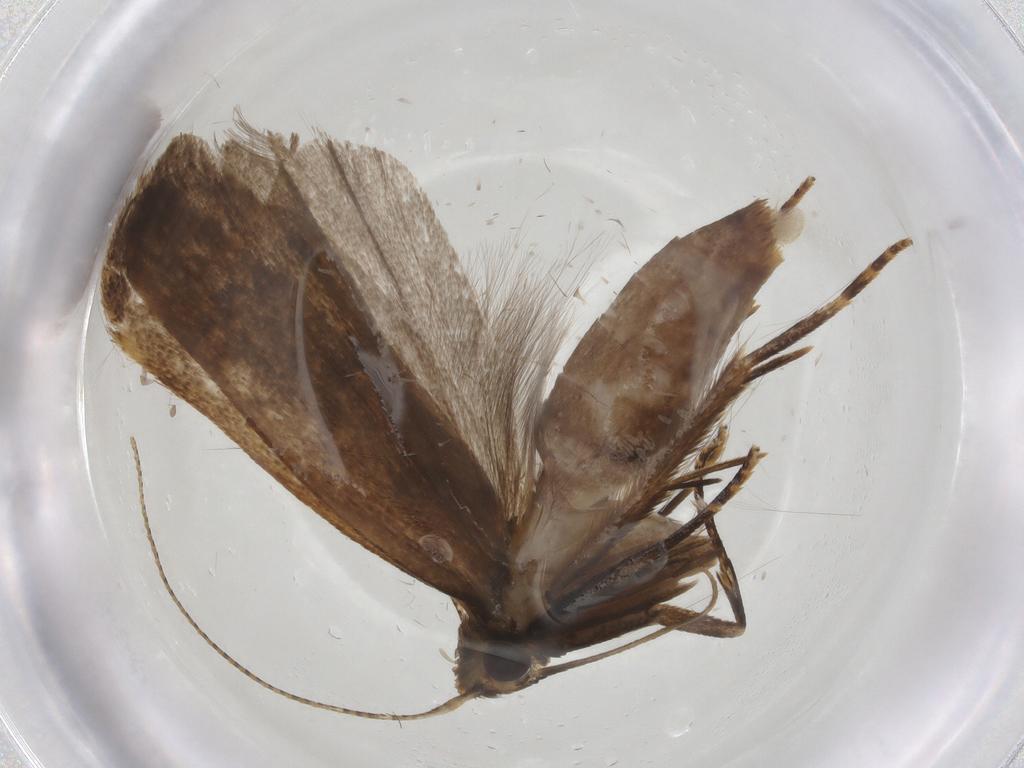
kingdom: Animalia
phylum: Arthropoda
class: Insecta
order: Lepidoptera
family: Gelechiidae
